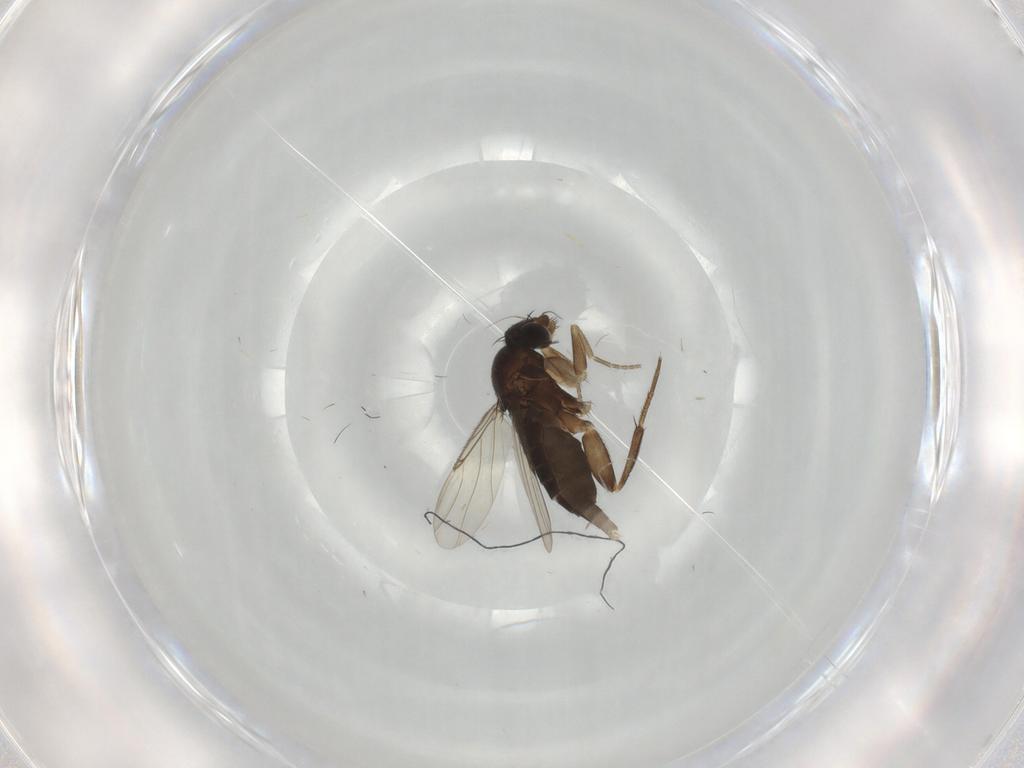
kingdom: Animalia
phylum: Arthropoda
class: Insecta
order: Diptera
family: Phoridae
